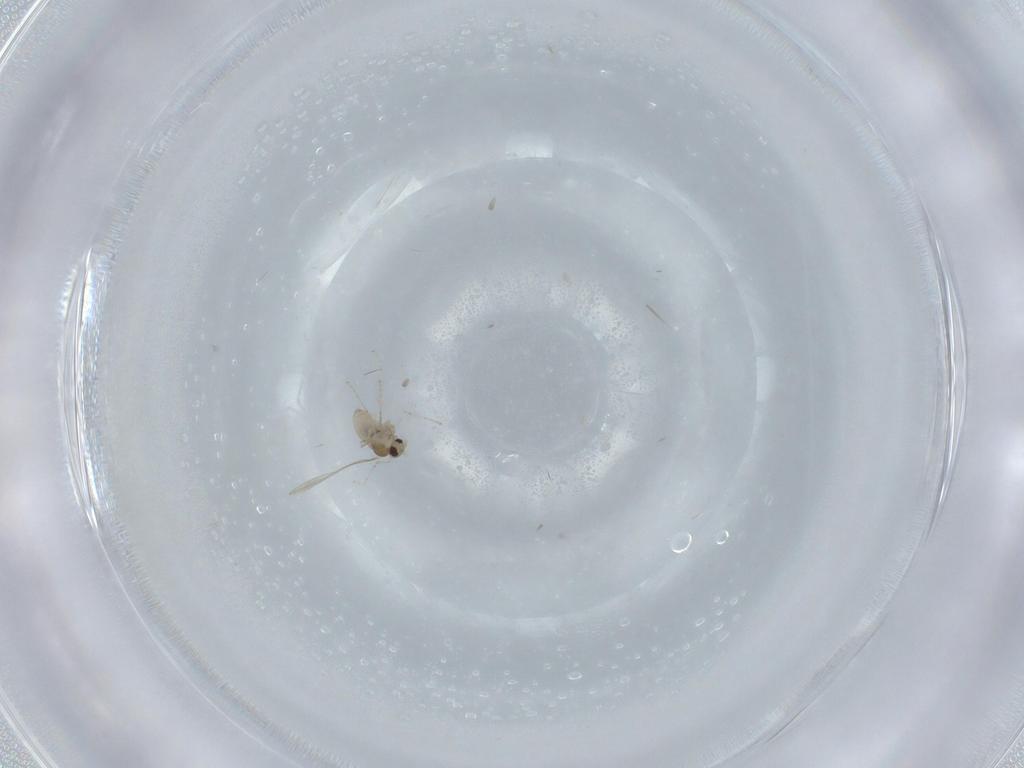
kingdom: Animalia
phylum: Arthropoda
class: Insecta
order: Diptera
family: Cecidomyiidae
